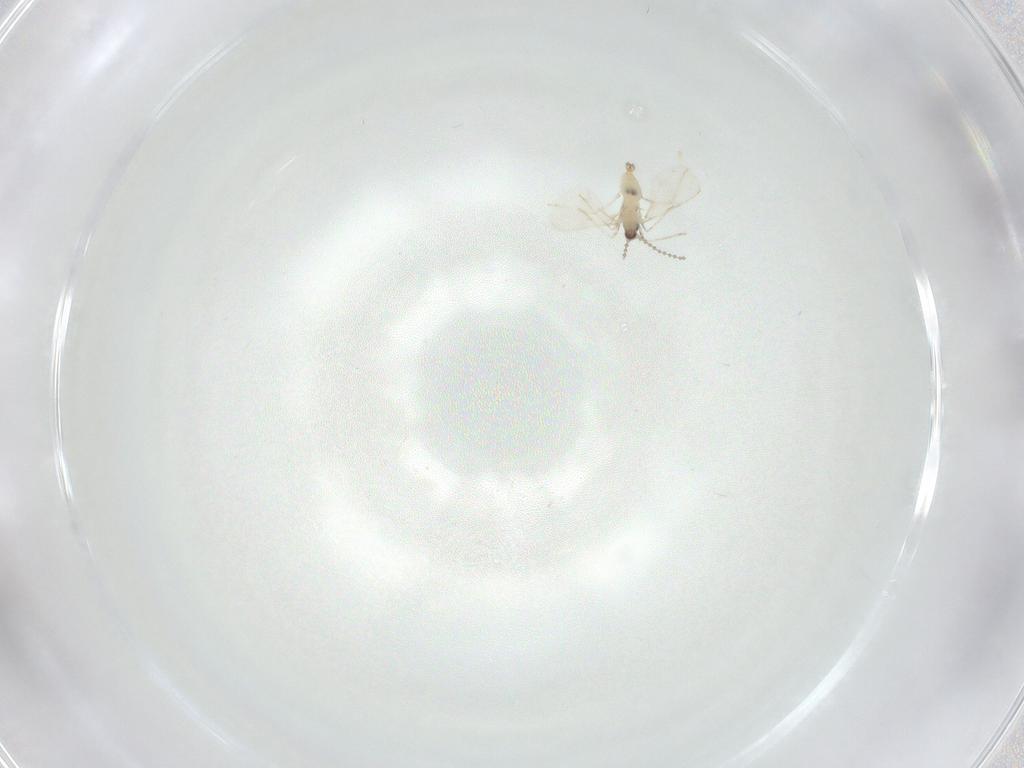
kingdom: Animalia
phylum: Arthropoda
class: Insecta
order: Diptera
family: Cecidomyiidae
